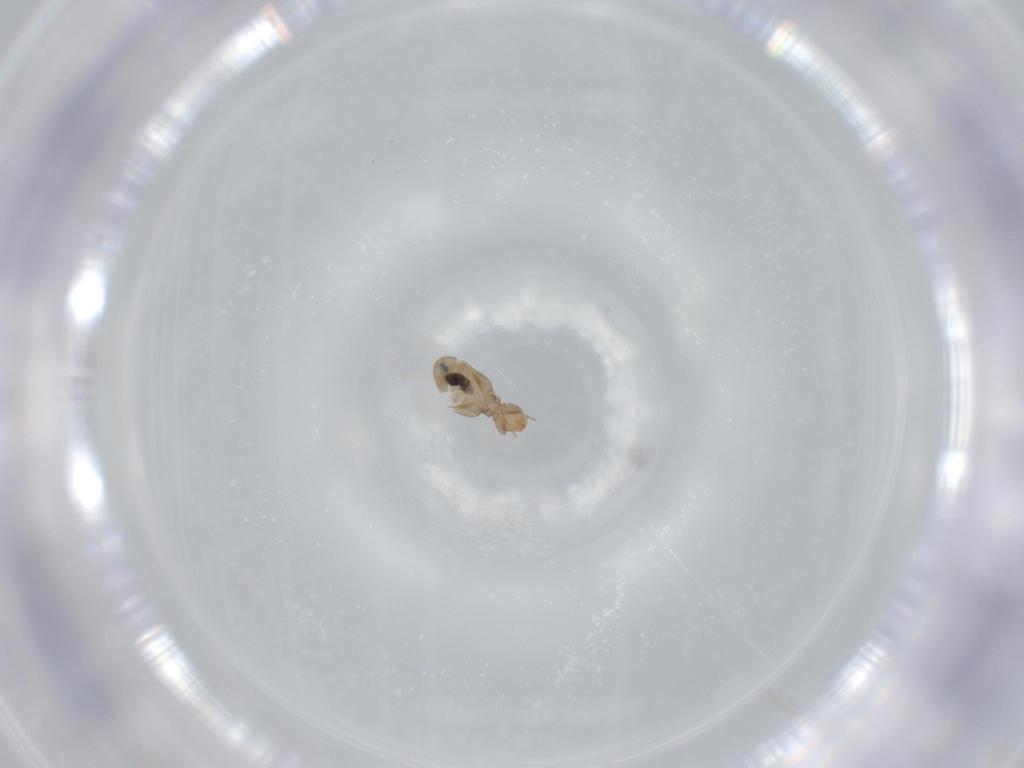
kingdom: Animalia
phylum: Arthropoda
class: Insecta
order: Psocodea
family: Liposcelididae
